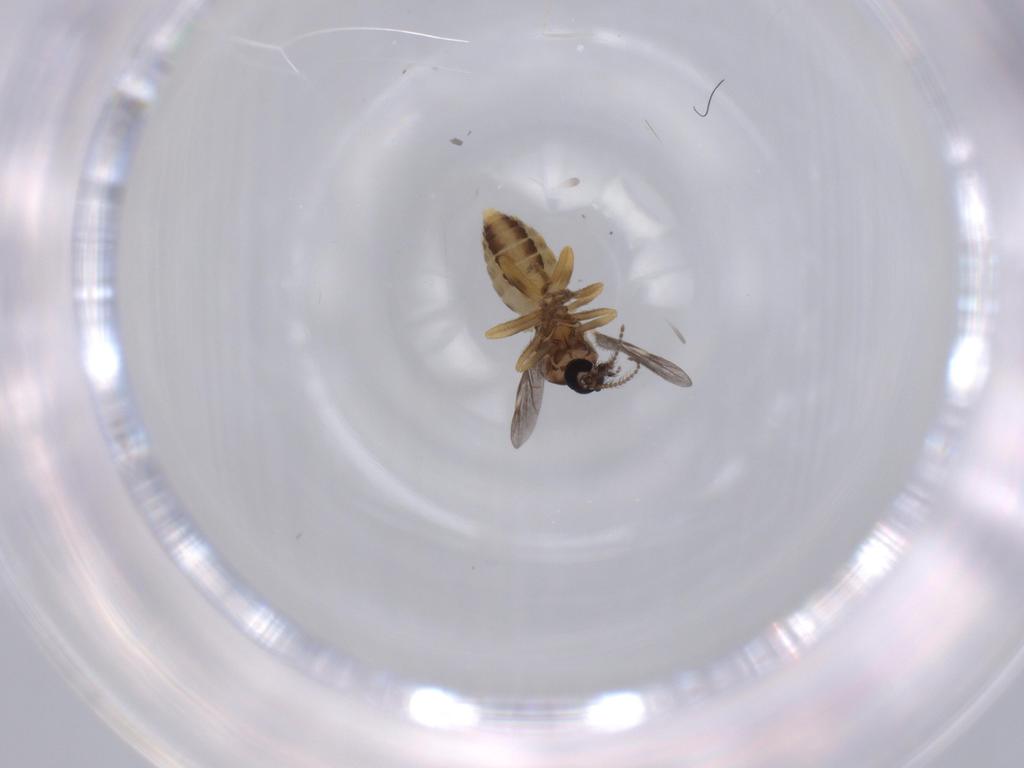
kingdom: Animalia
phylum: Arthropoda
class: Insecta
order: Diptera
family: Ceratopogonidae
